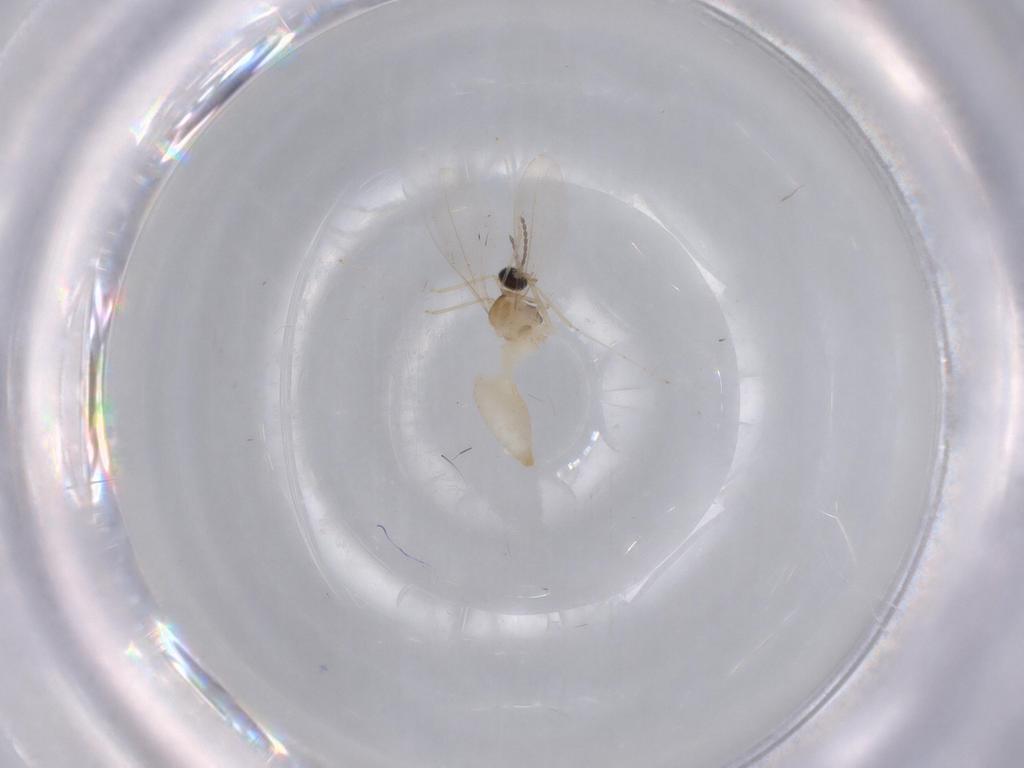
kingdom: Animalia
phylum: Arthropoda
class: Insecta
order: Diptera
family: Cecidomyiidae
